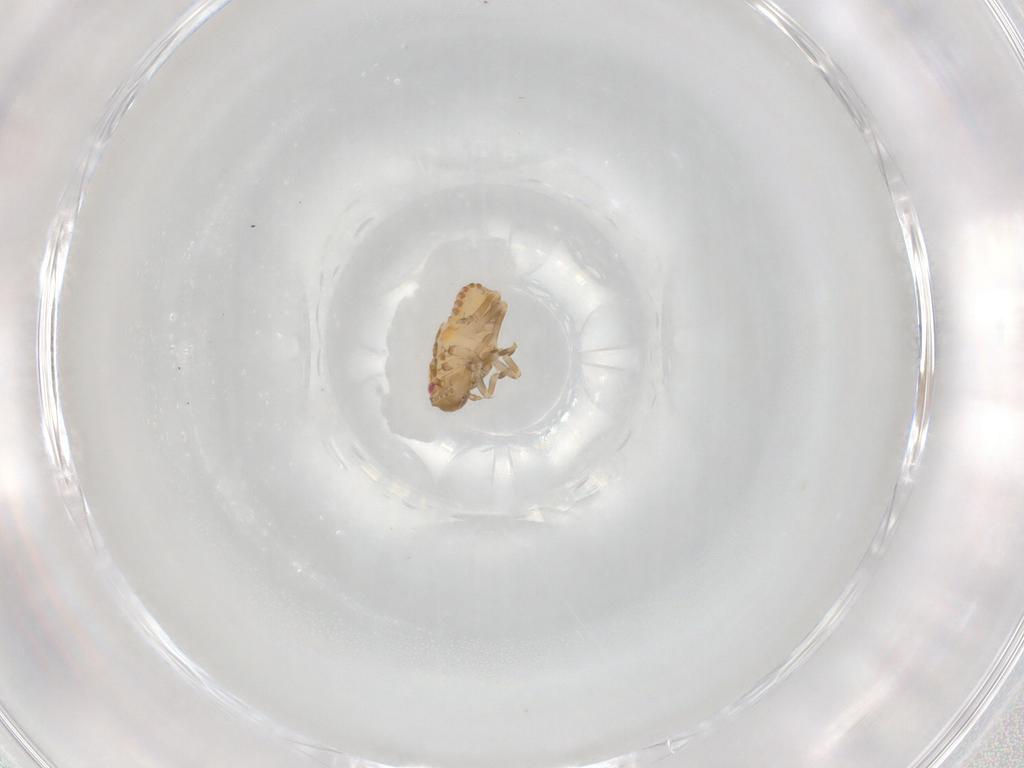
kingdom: Animalia
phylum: Arthropoda
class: Insecta
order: Hemiptera
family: Flatidae
